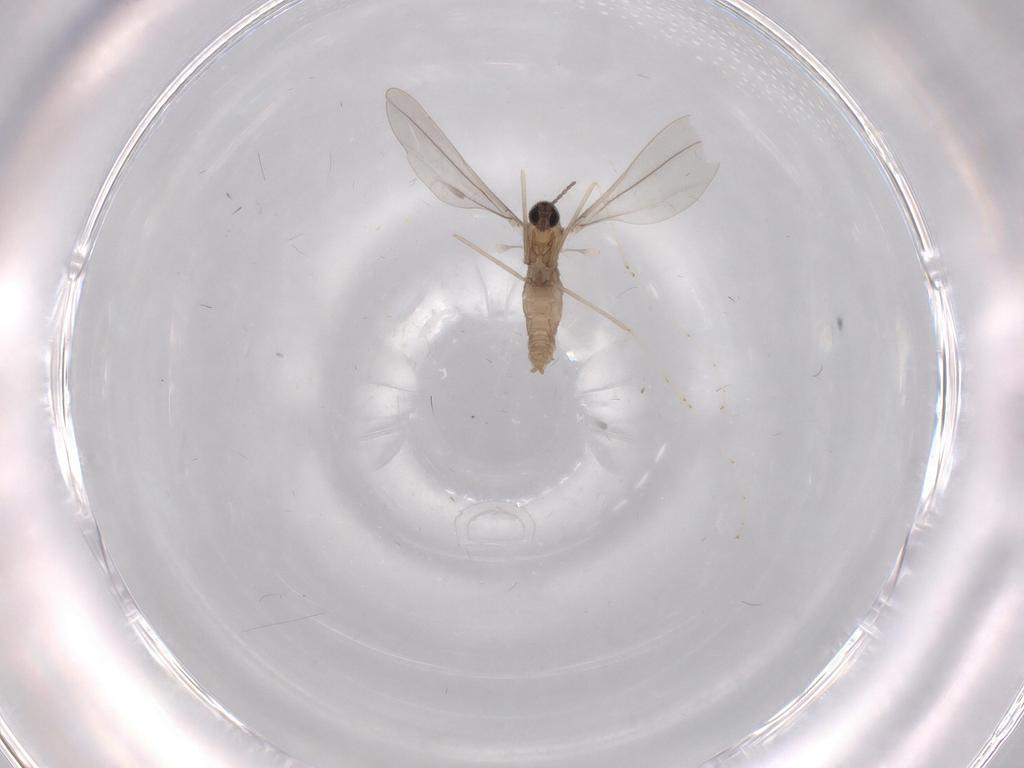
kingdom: Animalia
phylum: Arthropoda
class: Insecta
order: Diptera
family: Cecidomyiidae
